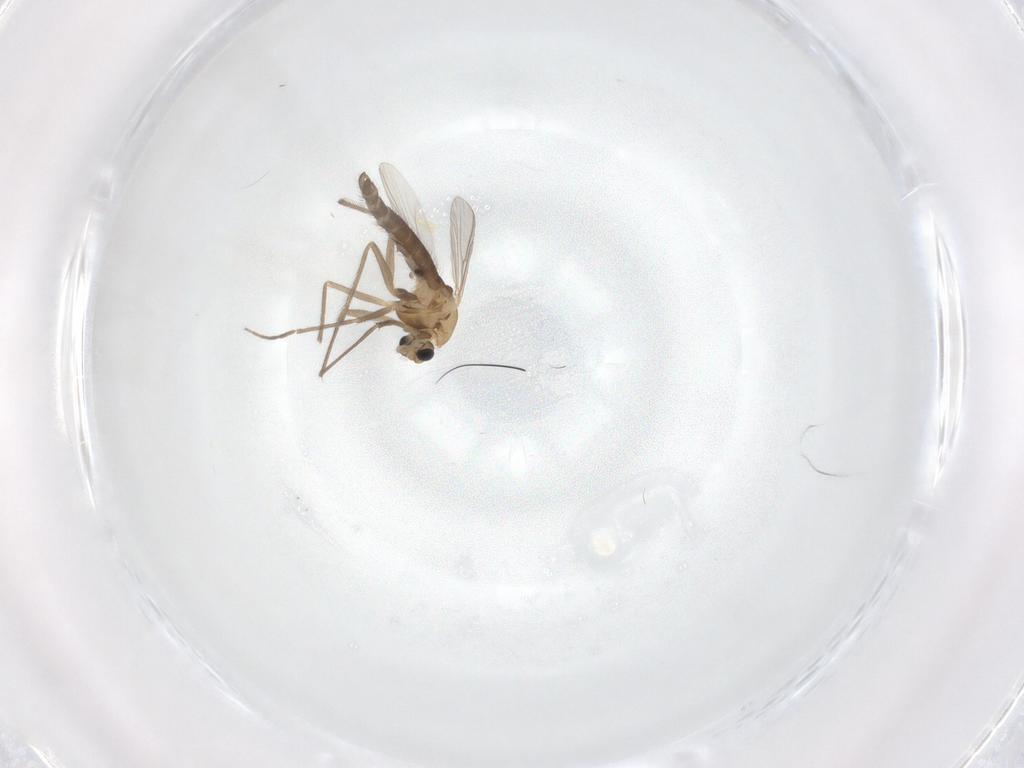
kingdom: Animalia
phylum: Arthropoda
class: Insecta
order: Diptera
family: Chironomidae
